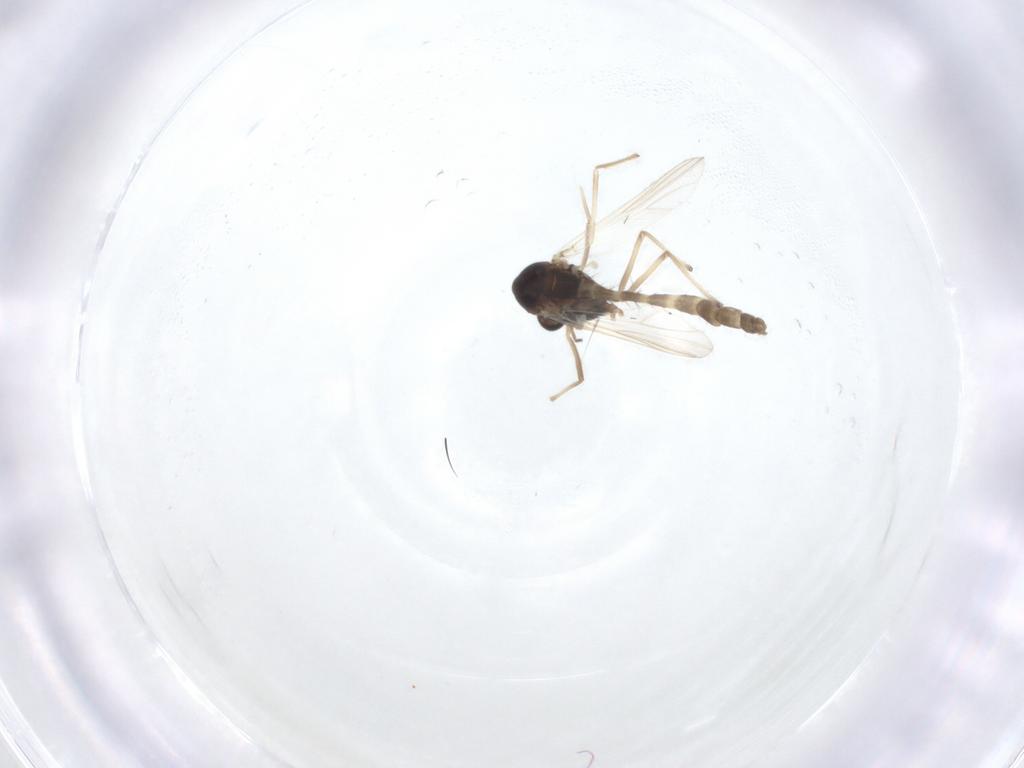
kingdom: Animalia
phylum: Arthropoda
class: Insecta
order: Diptera
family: Chironomidae
